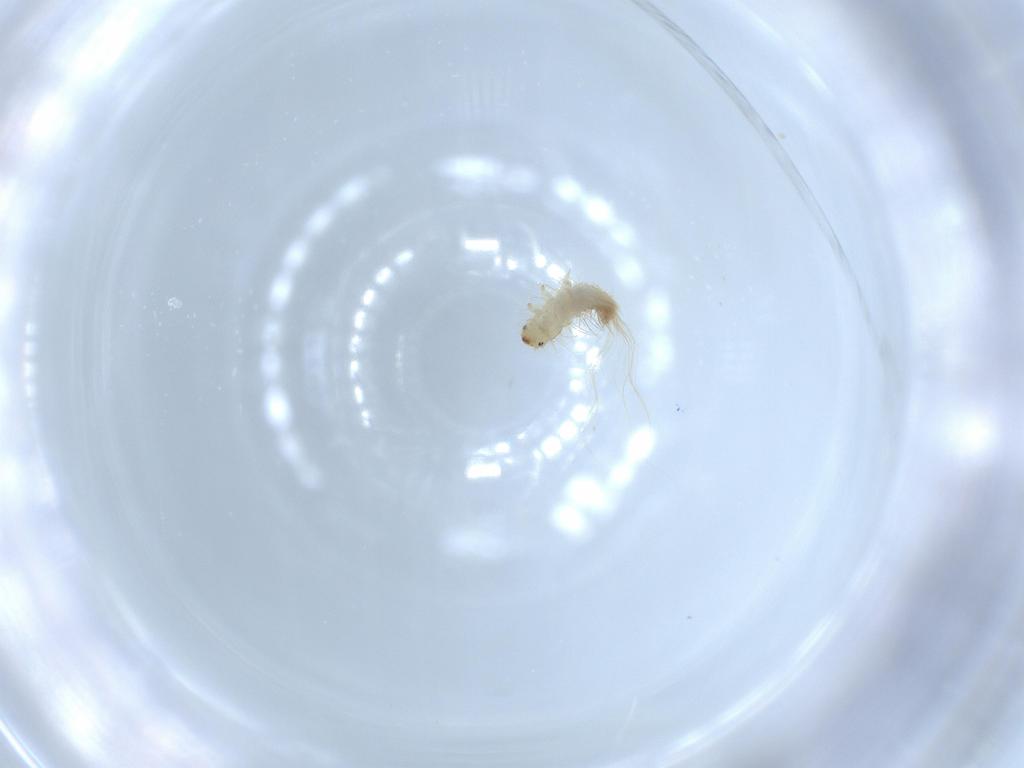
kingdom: Animalia
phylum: Arthropoda
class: Insecta
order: Coleoptera
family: Dermestidae
